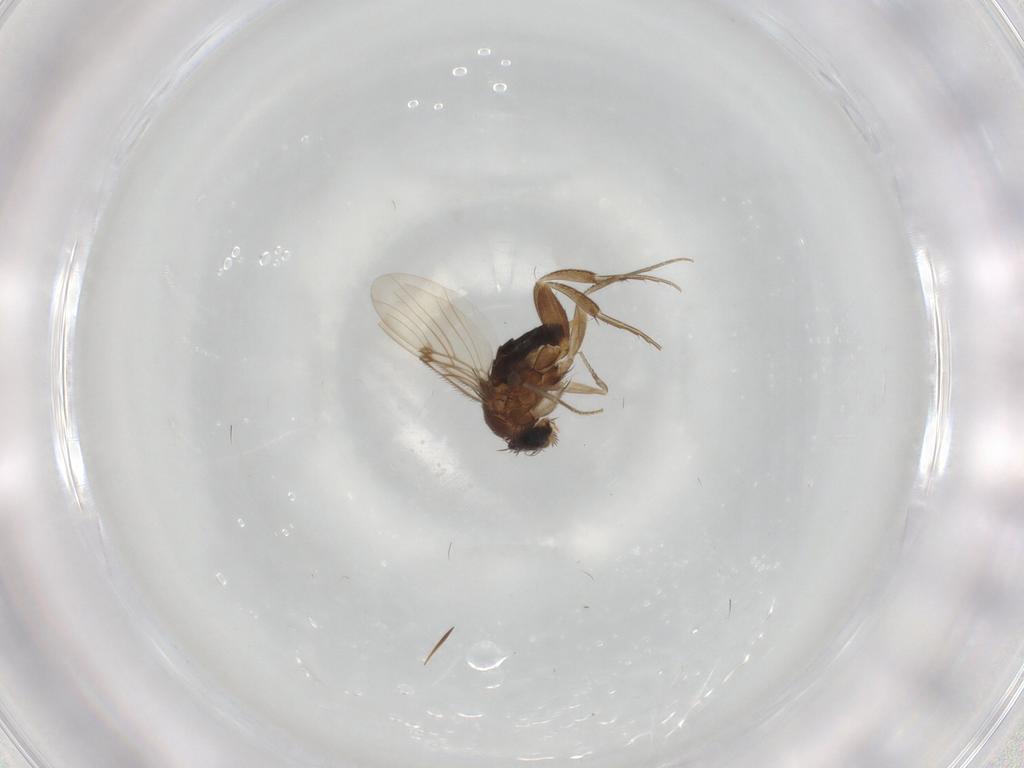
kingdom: Animalia
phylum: Arthropoda
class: Insecta
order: Diptera
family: Phoridae
